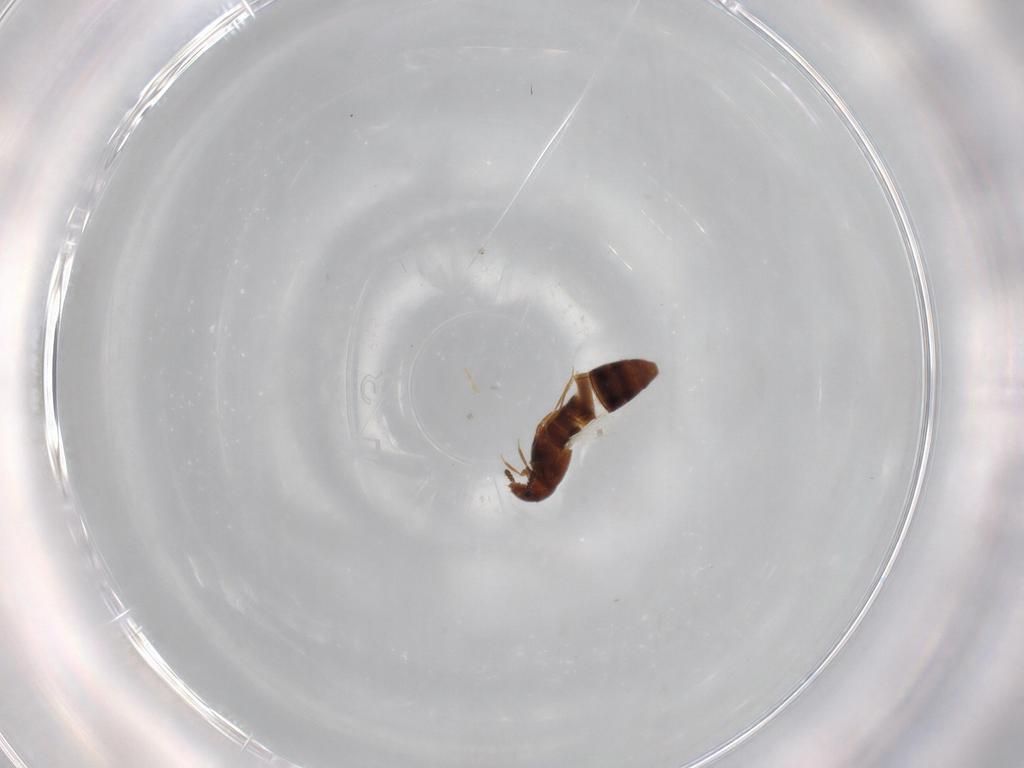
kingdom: Animalia
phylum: Arthropoda
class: Insecta
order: Coleoptera
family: Staphylinidae
